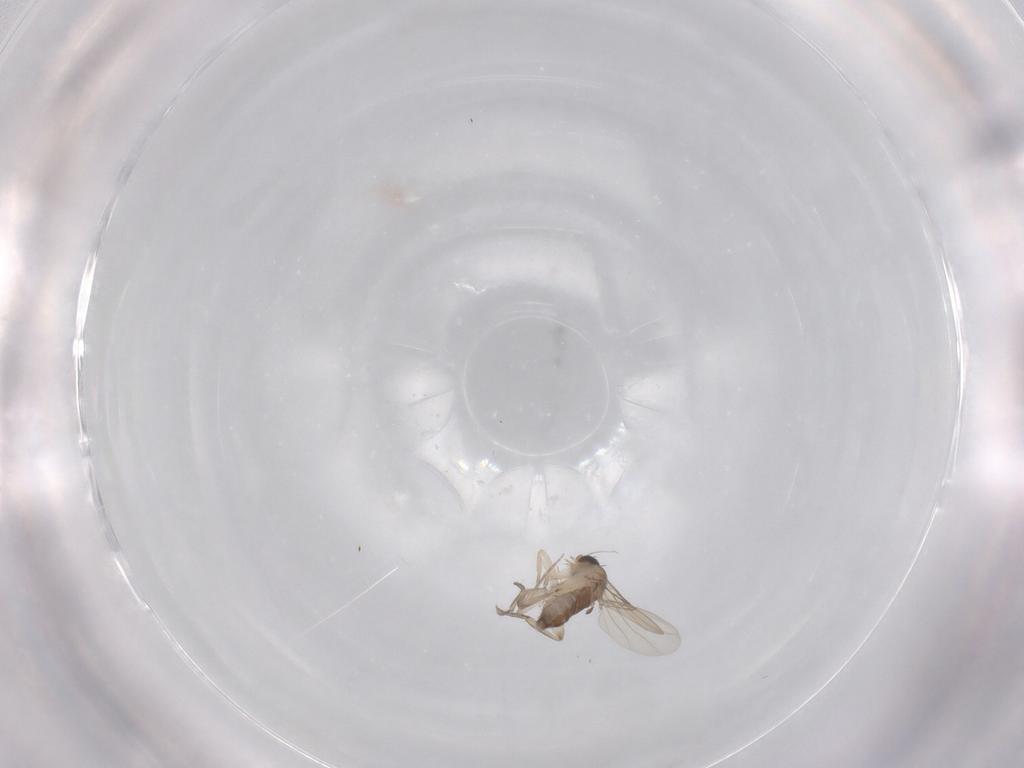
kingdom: Animalia
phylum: Arthropoda
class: Insecta
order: Diptera
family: Phoridae
